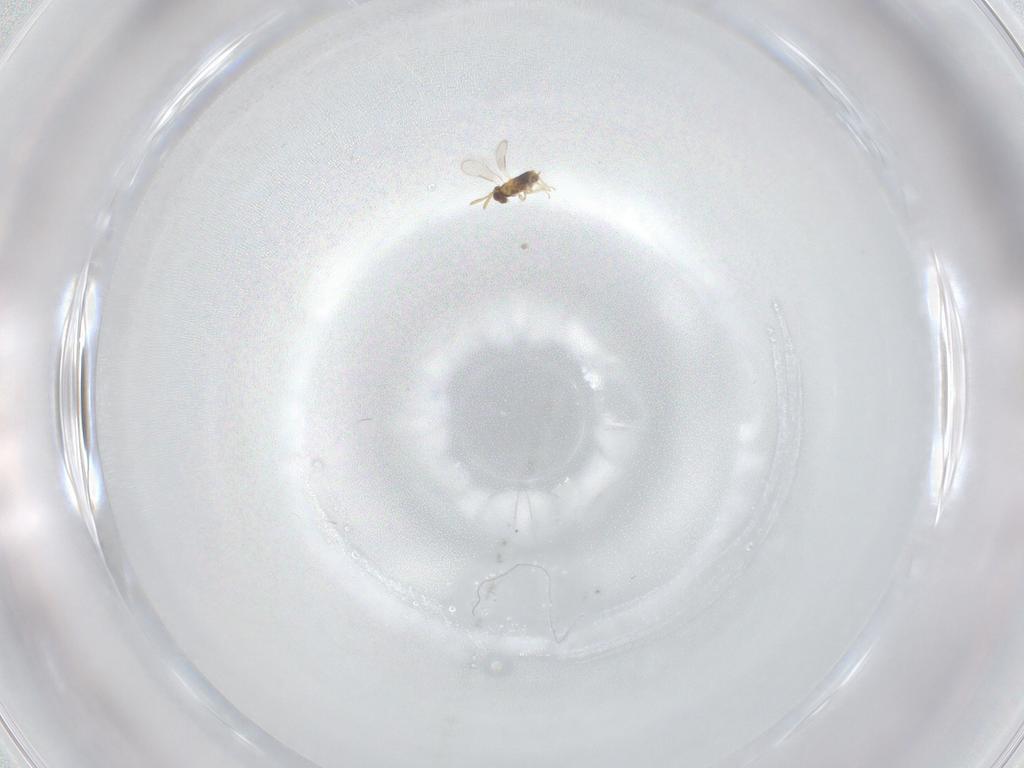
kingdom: Animalia
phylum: Arthropoda
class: Insecta
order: Hymenoptera
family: Aphelinidae
